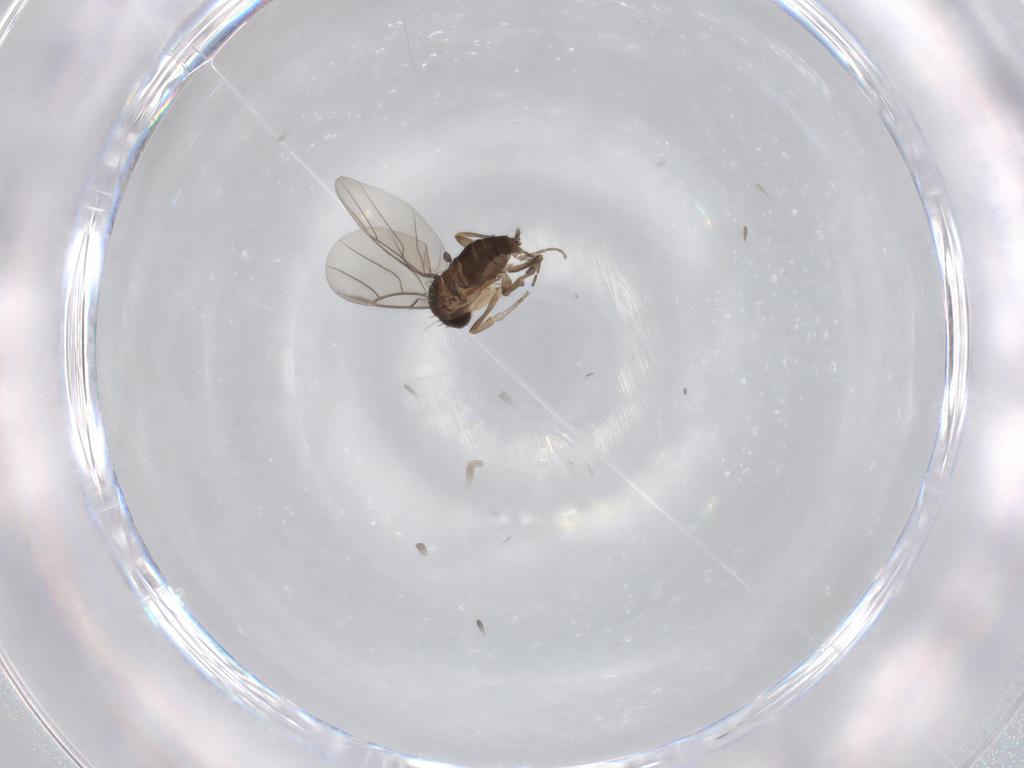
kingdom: Animalia
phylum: Arthropoda
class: Insecta
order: Diptera
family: Phoridae
